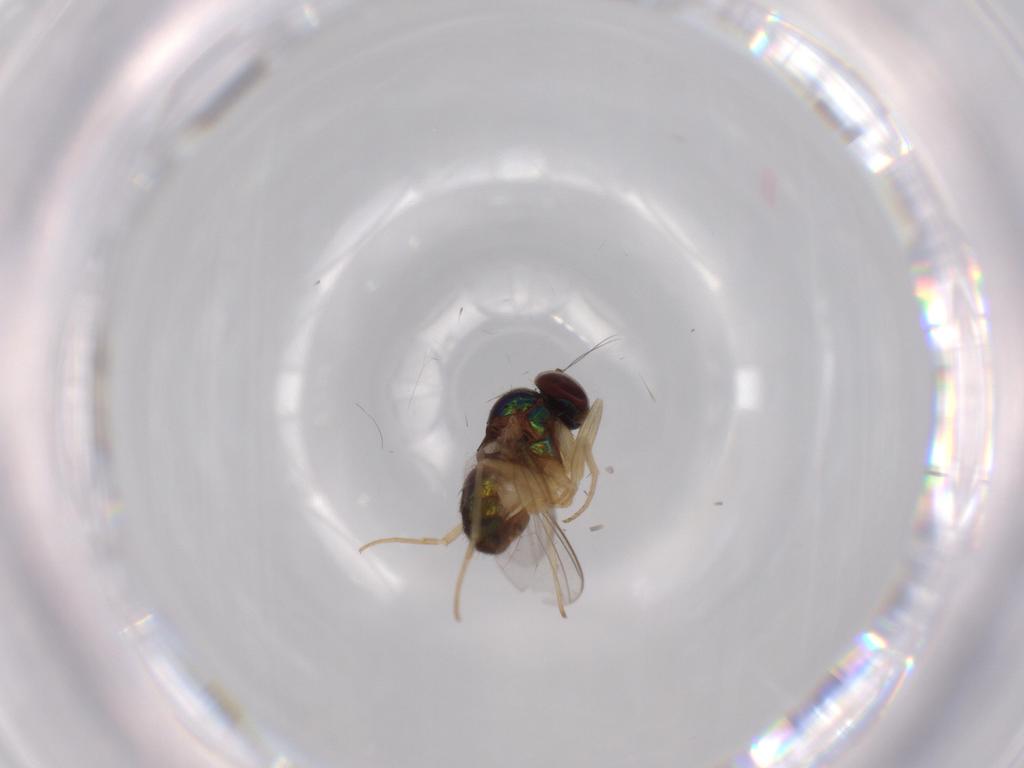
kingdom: Animalia
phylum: Arthropoda
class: Insecta
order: Diptera
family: Dolichopodidae
